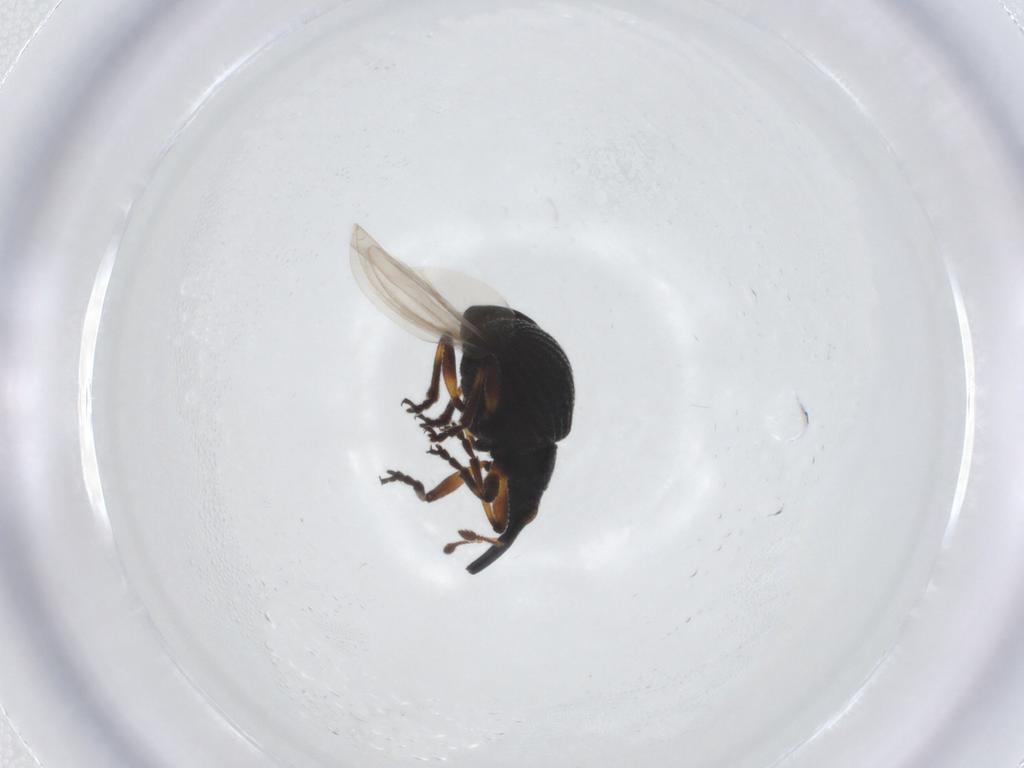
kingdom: Animalia
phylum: Arthropoda
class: Insecta
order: Coleoptera
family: Brentidae
